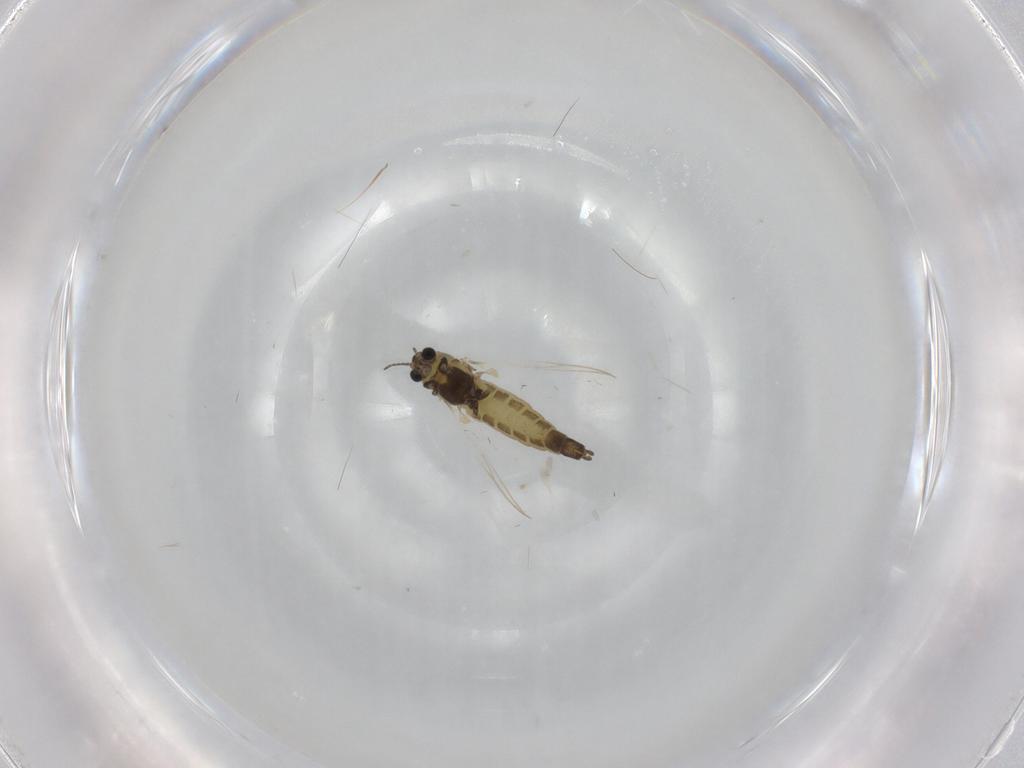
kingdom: Animalia
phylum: Arthropoda
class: Insecta
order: Diptera
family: Chironomidae
